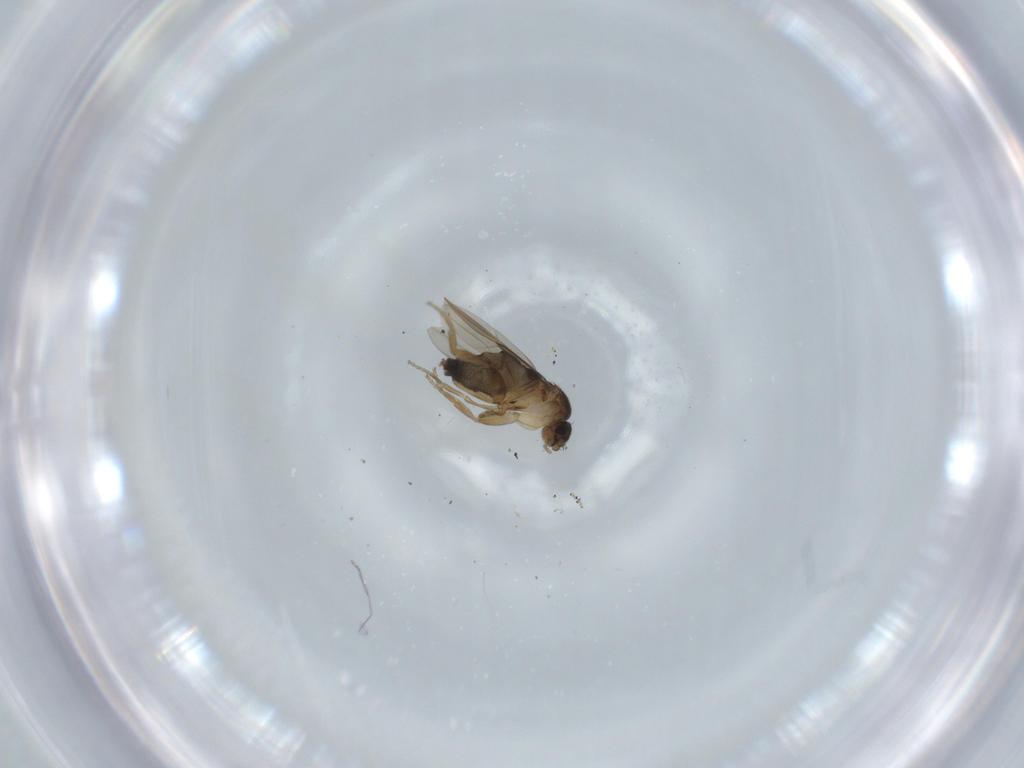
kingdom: Animalia
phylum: Arthropoda
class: Insecta
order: Diptera
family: Phoridae
